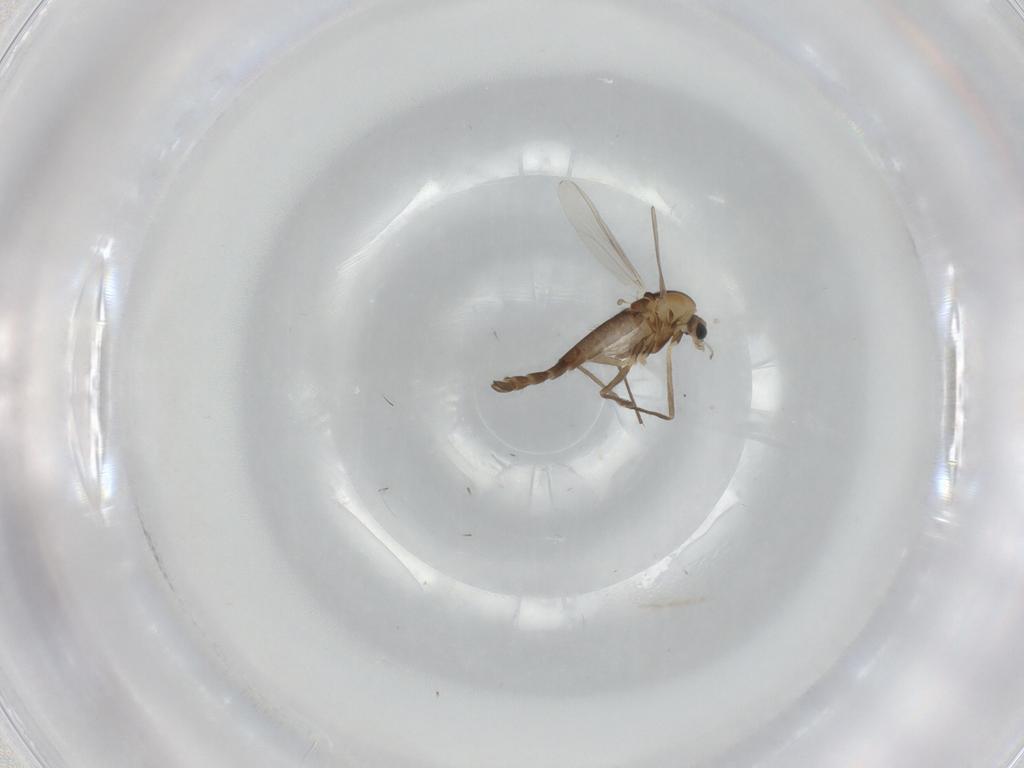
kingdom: Animalia
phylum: Arthropoda
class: Insecta
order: Diptera
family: Chironomidae
